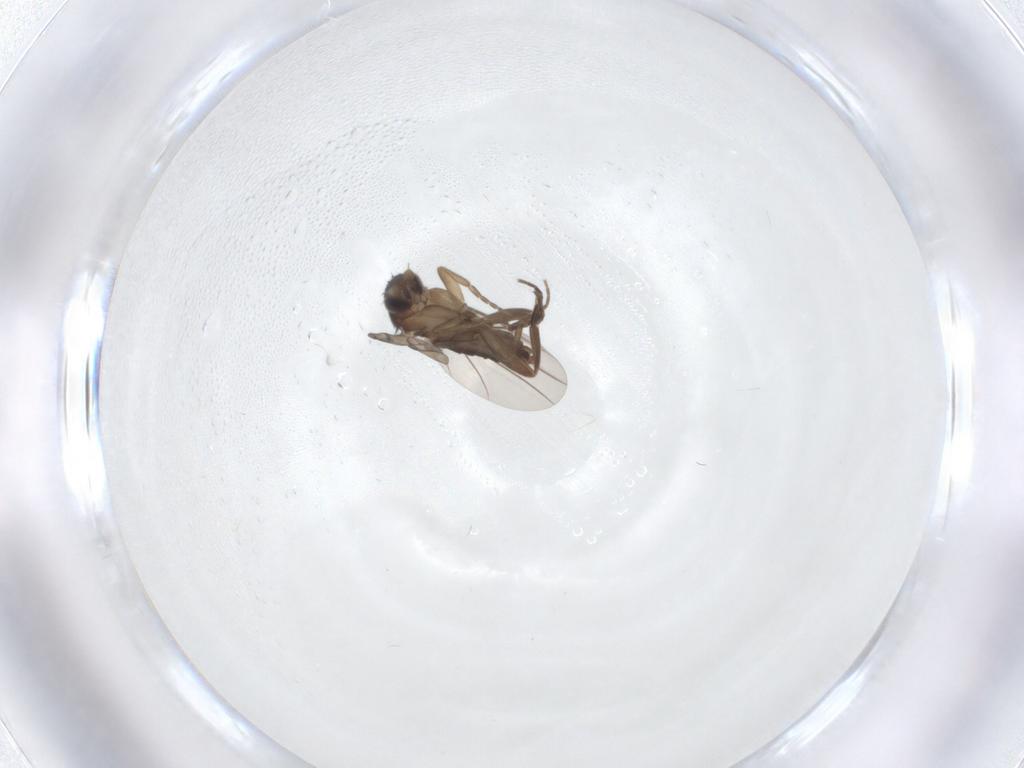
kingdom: Animalia
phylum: Arthropoda
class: Insecta
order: Diptera
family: Phoridae
